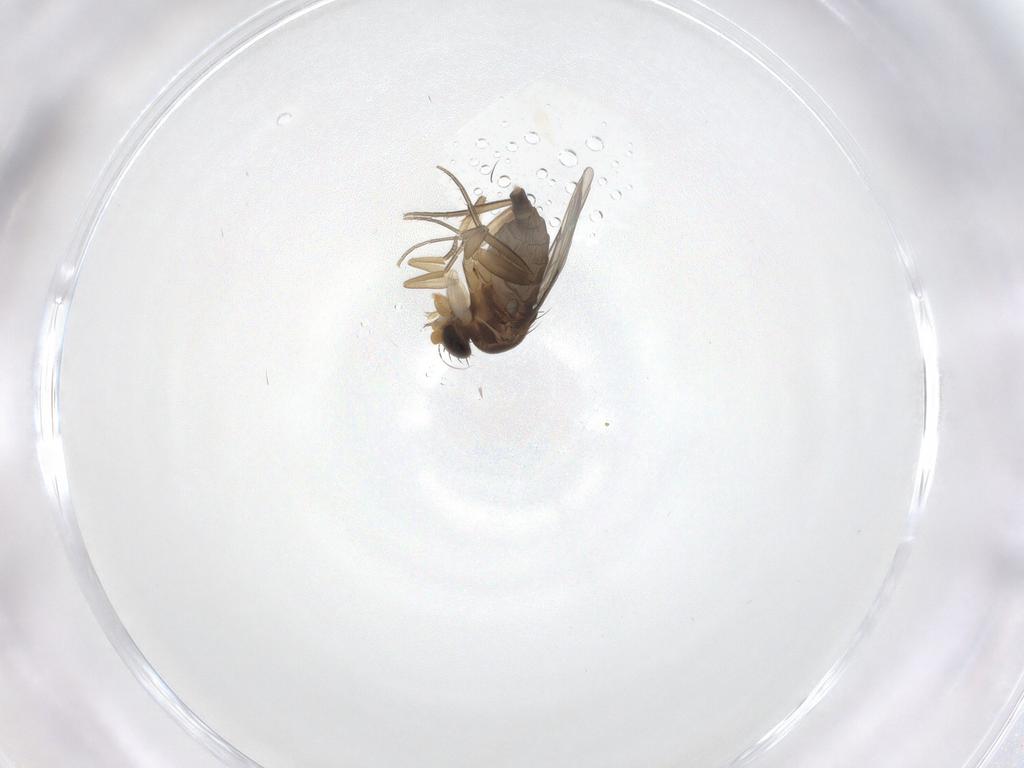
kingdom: Animalia
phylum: Arthropoda
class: Insecta
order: Diptera
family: Phoridae
